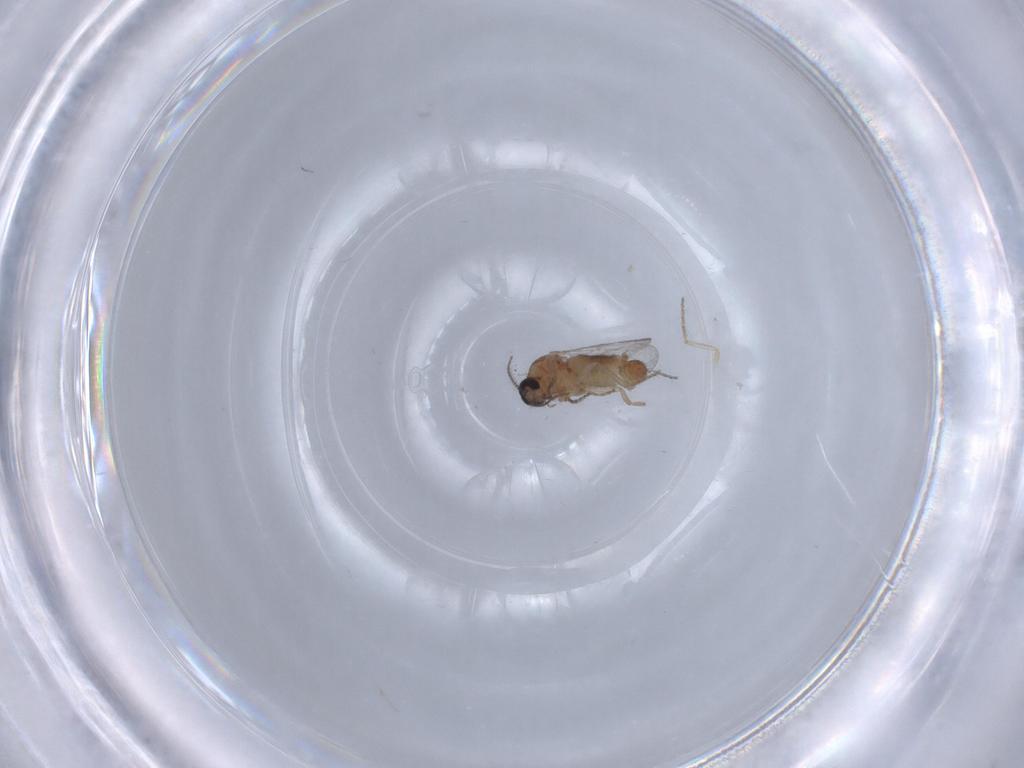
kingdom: Animalia
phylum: Arthropoda
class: Insecta
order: Diptera
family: Ceratopogonidae
